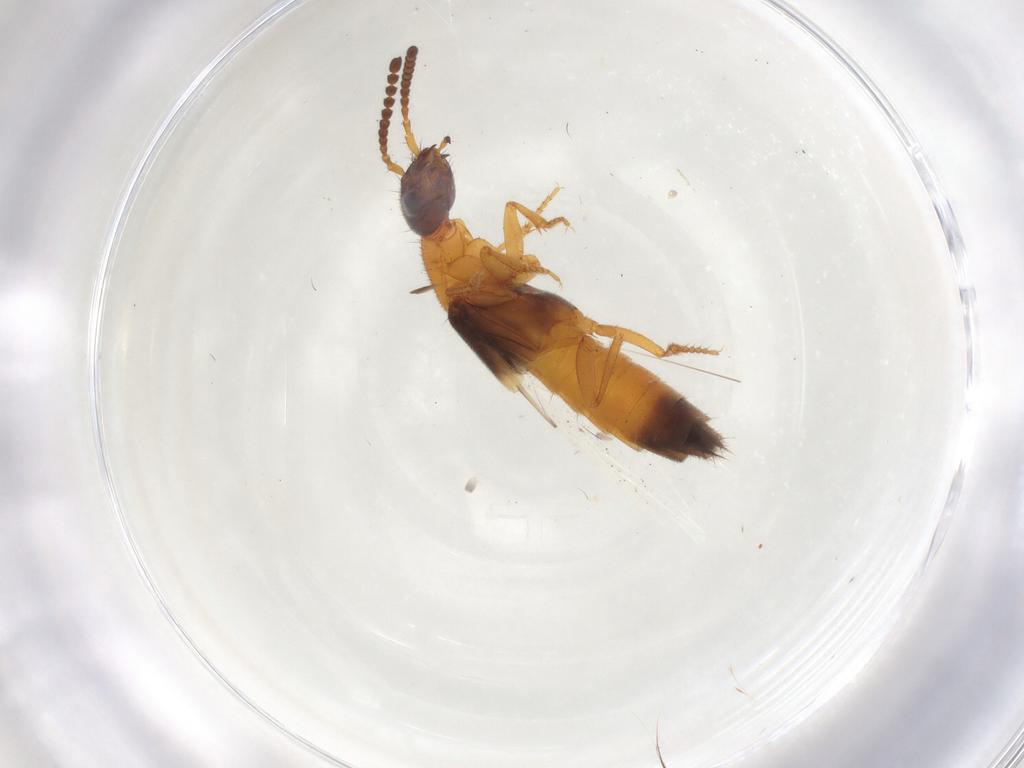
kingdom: Animalia
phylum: Arthropoda
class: Insecta
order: Coleoptera
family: Staphylinidae
